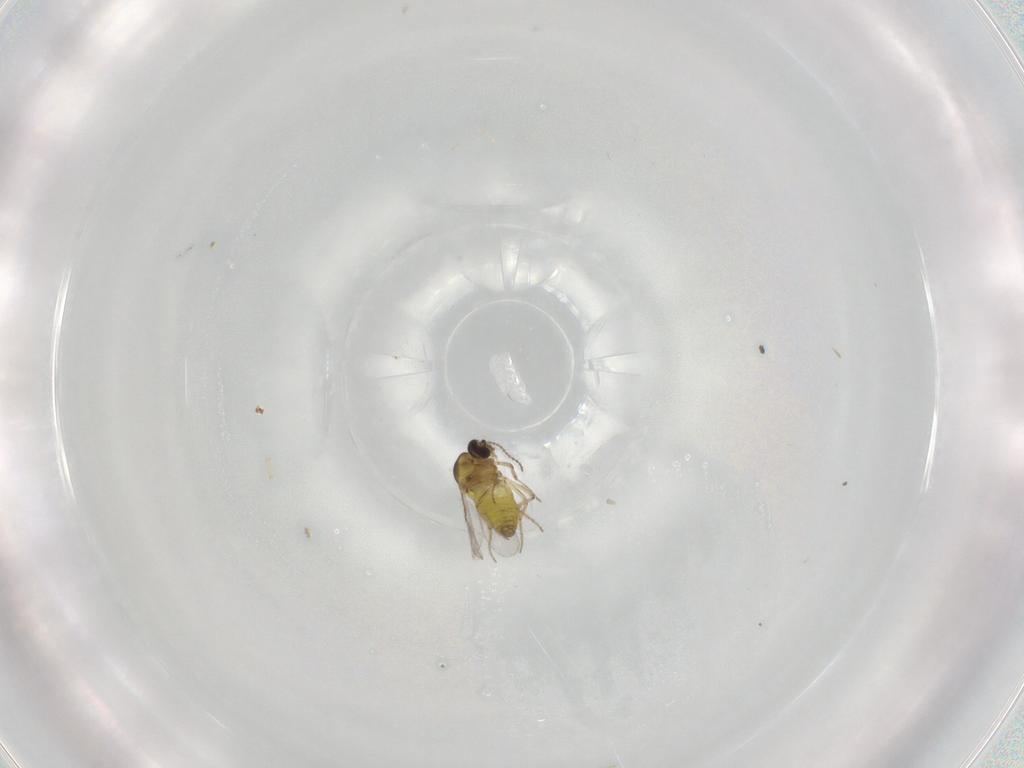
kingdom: Animalia
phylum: Arthropoda
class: Insecta
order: Diptera
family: Ceratopogonidae
